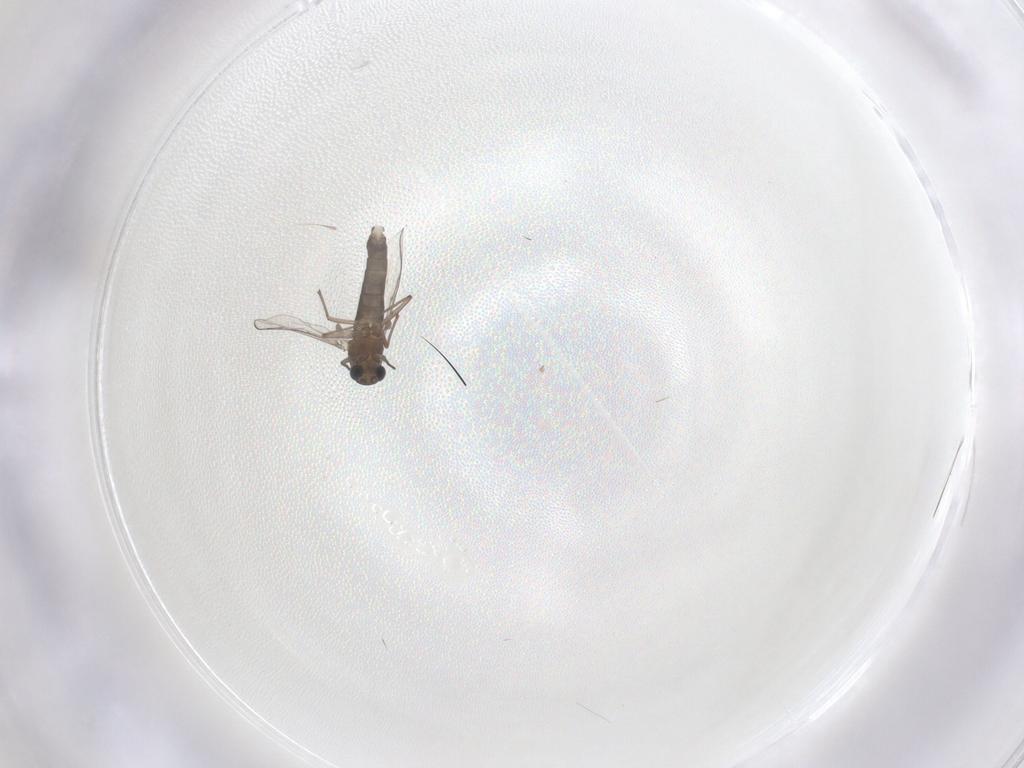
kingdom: Animalia
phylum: Arthropoda
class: Insecta
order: Diptera
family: Chironomidae
